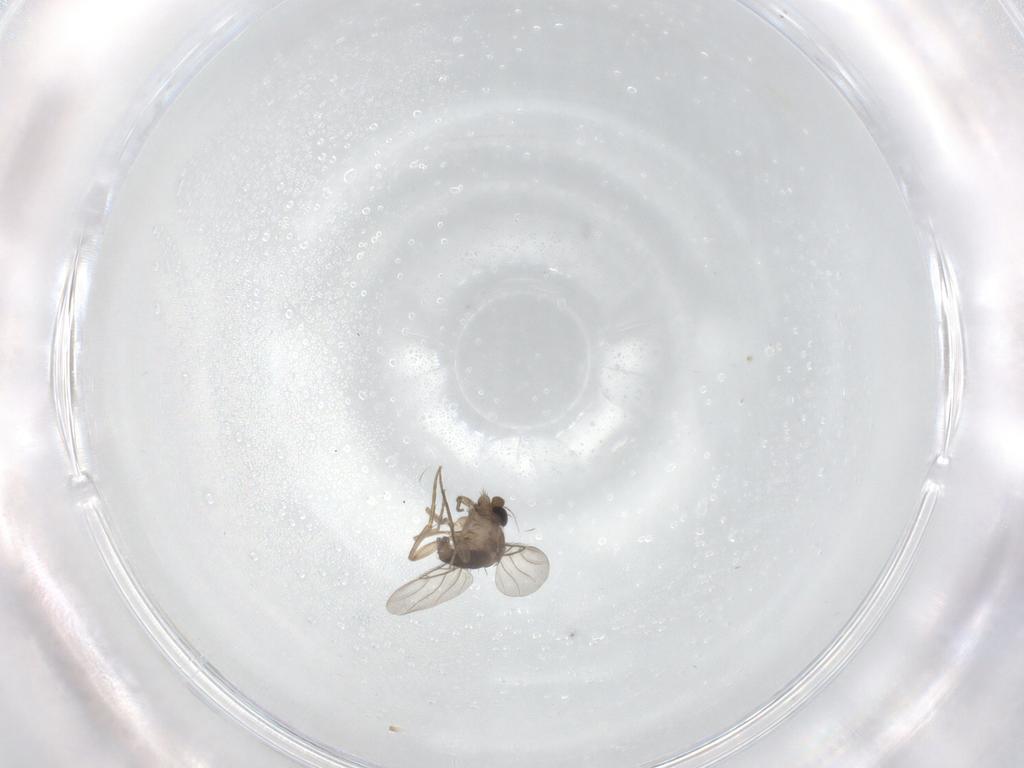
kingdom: Animalia
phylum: Arthropoda
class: Insecta
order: Diptera
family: Phoridae
